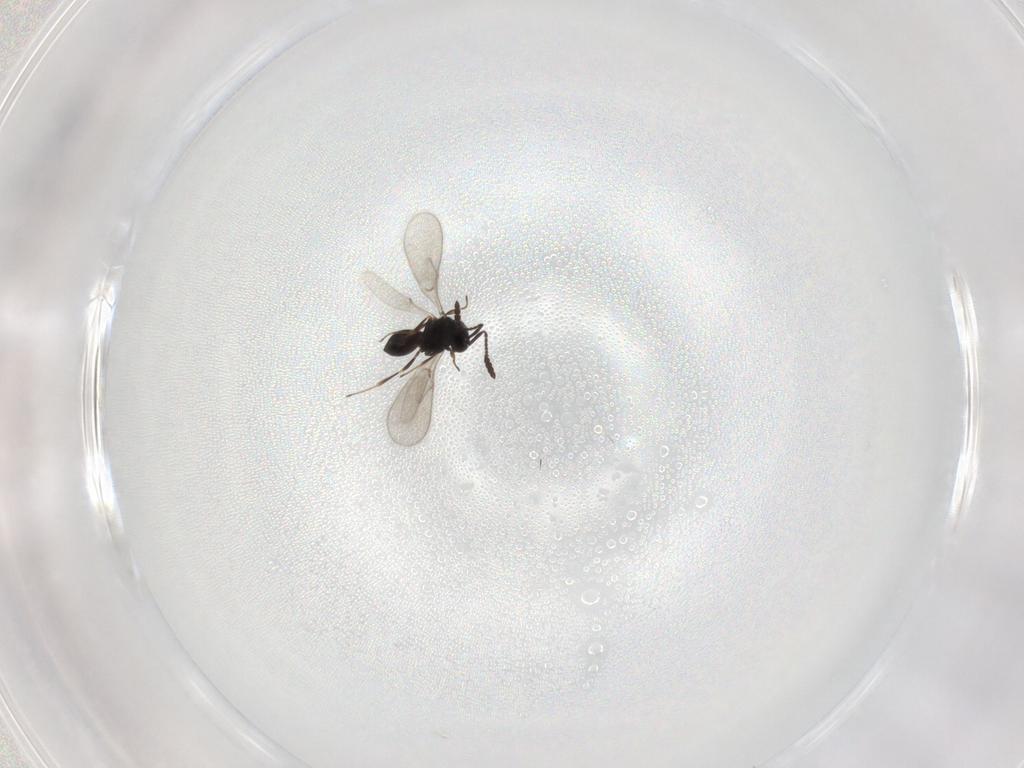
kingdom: Animalia
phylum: Arthropoda
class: Insecta
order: Hymenoptera
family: Scelionidae
